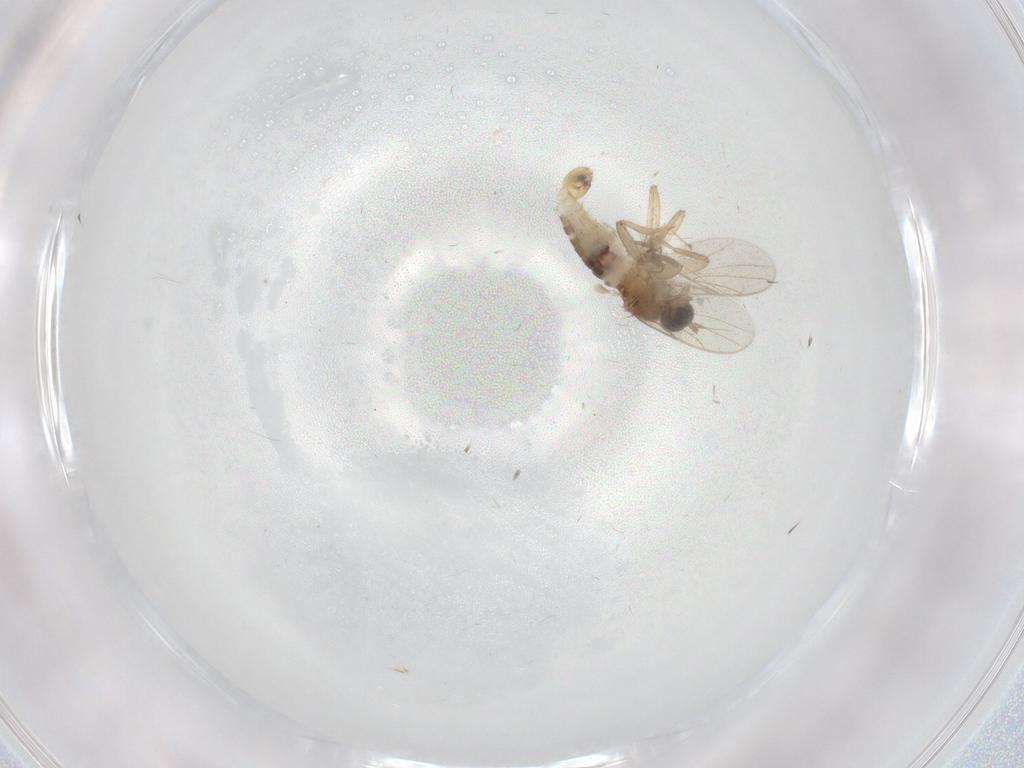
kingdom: Animalia
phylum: Arthropoda
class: Insecta
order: Diptera
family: Hybotidae
